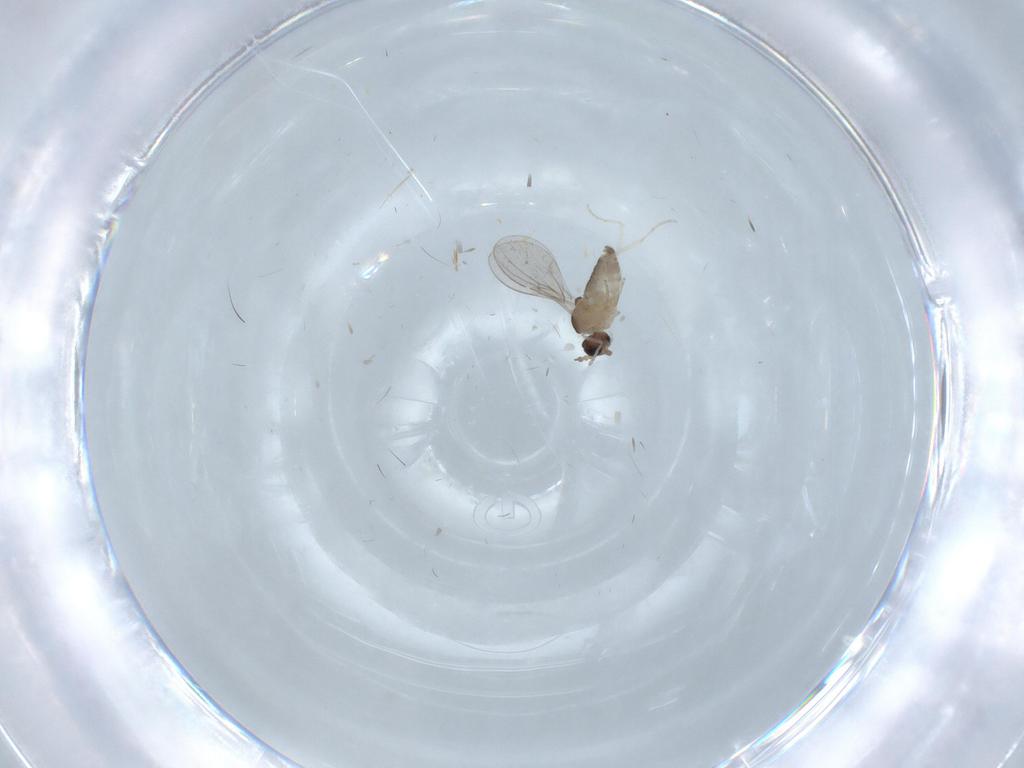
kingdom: Animalia
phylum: Arthropoda
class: Insecta
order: Diptera
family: Cecidomyiidae
